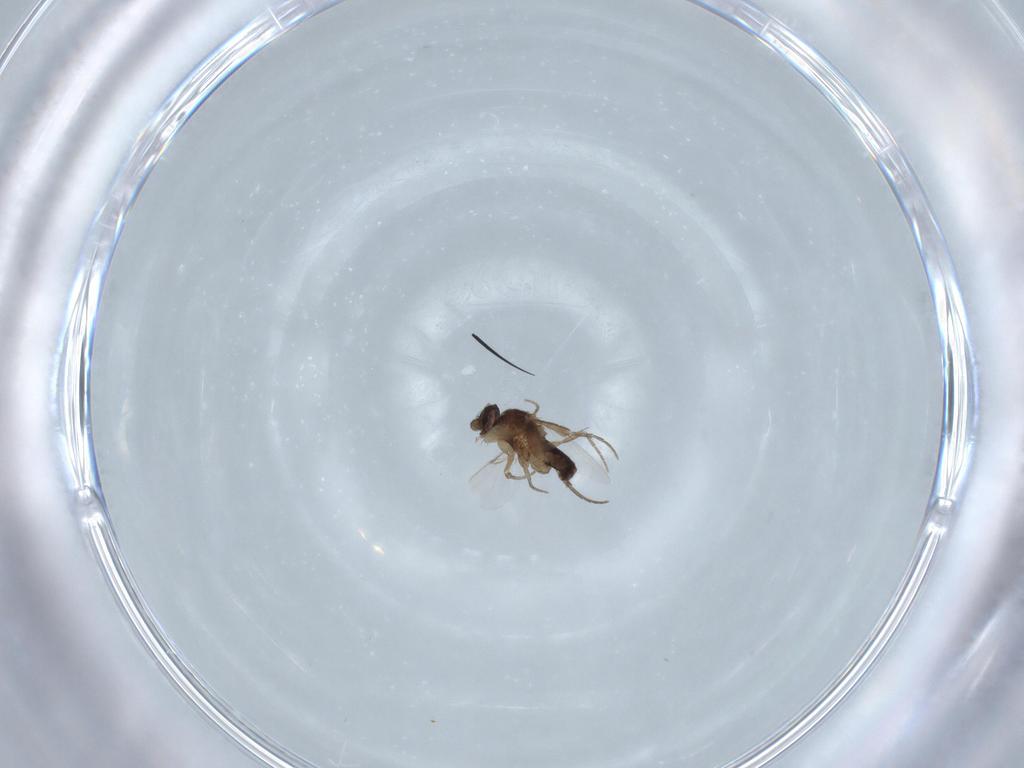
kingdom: Animalia
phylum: Arthropoda
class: Insecta
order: Diptera
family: Phoridae
